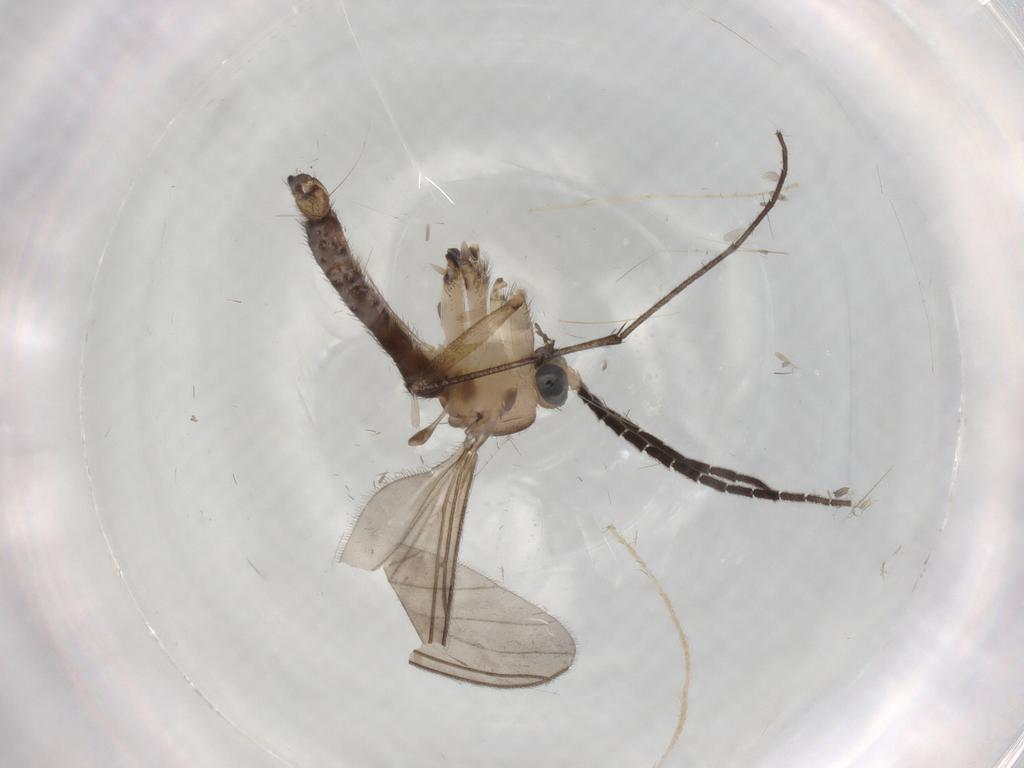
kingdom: Animalia
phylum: Arthropoda
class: Insecta
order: Diptera
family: Sciaridae
